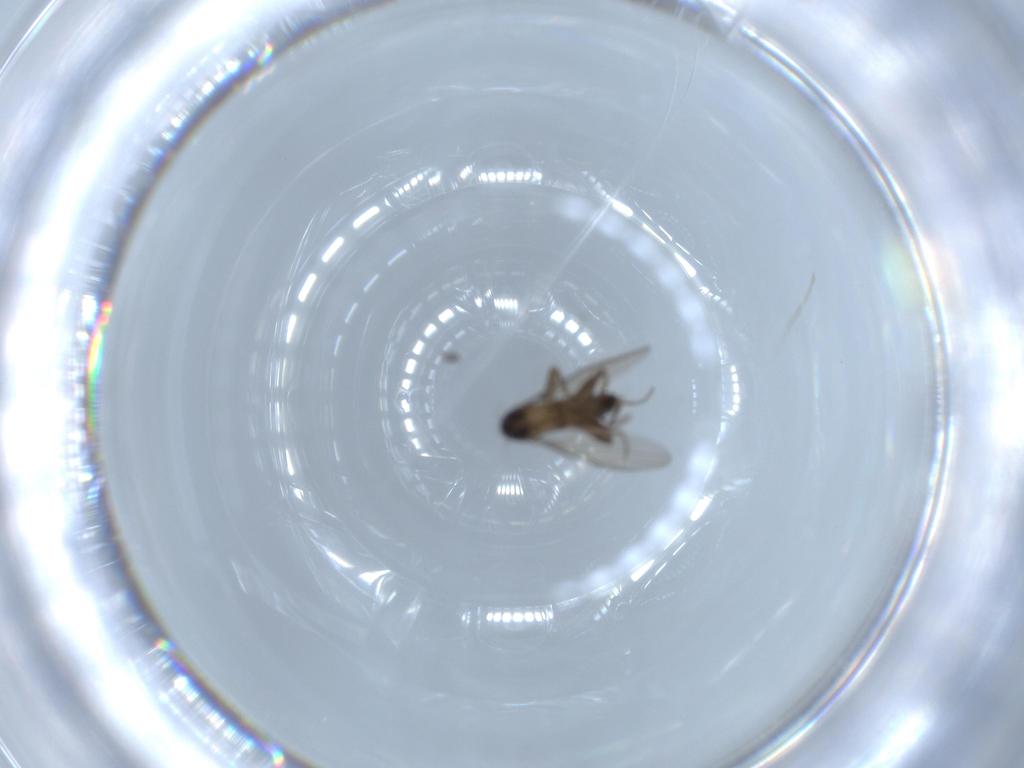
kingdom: Animalia
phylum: Arthropoda
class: Insecta
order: Diptera
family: Phoridae
